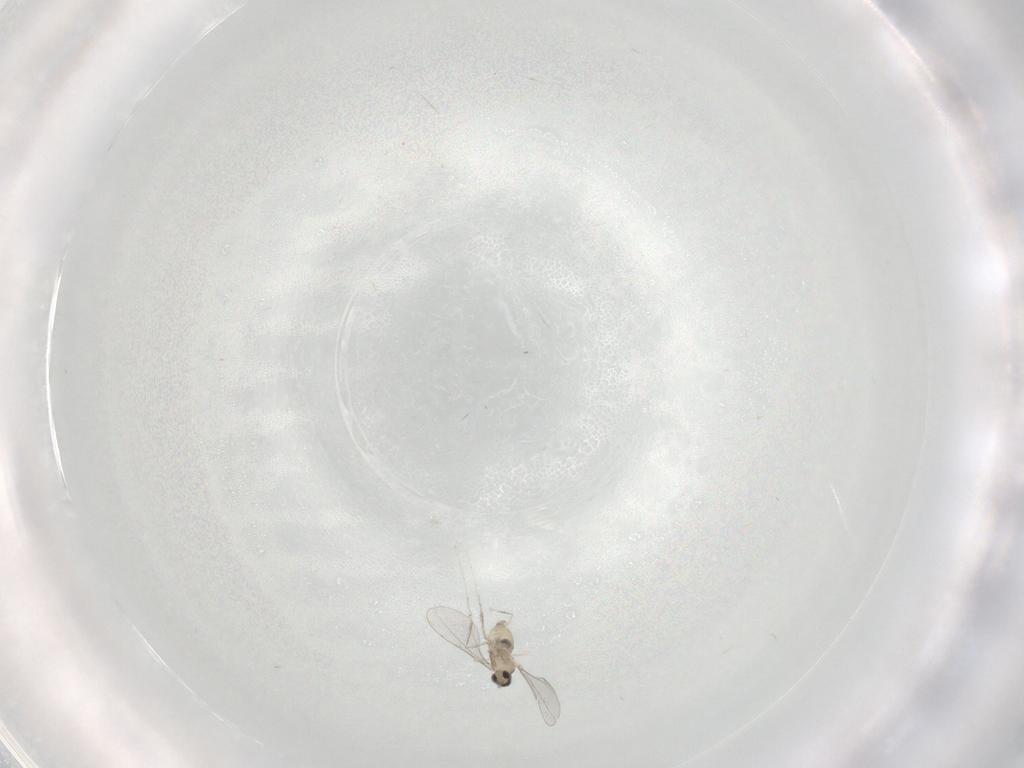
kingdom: Animalia
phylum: Arthropoda
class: Insecta
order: Diptera
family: Cecidomyiidae
